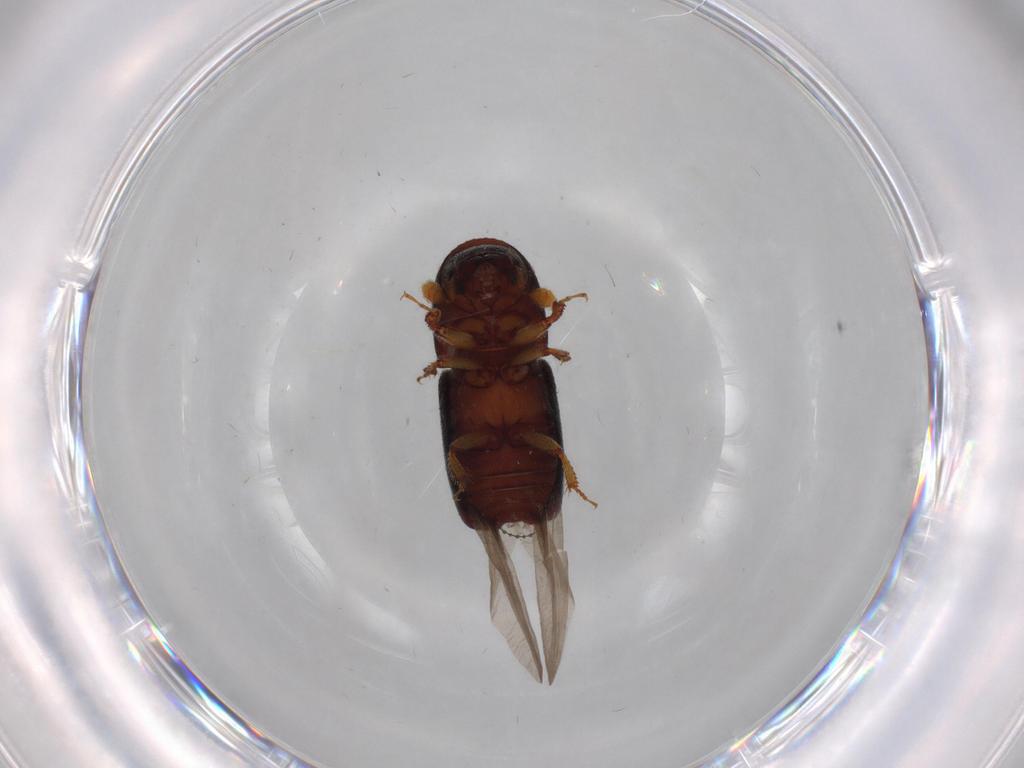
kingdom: Animalia
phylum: Arthropoda
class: Insecta
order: Coleoptera
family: Curculionidae
